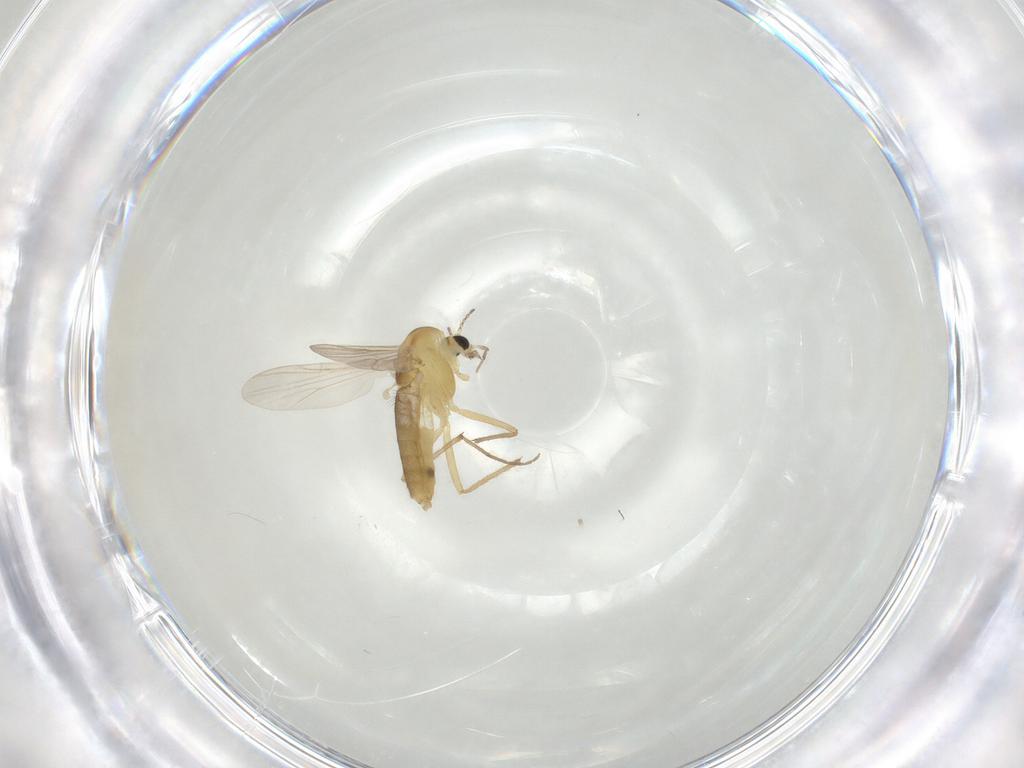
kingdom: Animalia
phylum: Arthropoda
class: Insecta
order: Diptera
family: Chironomidae
